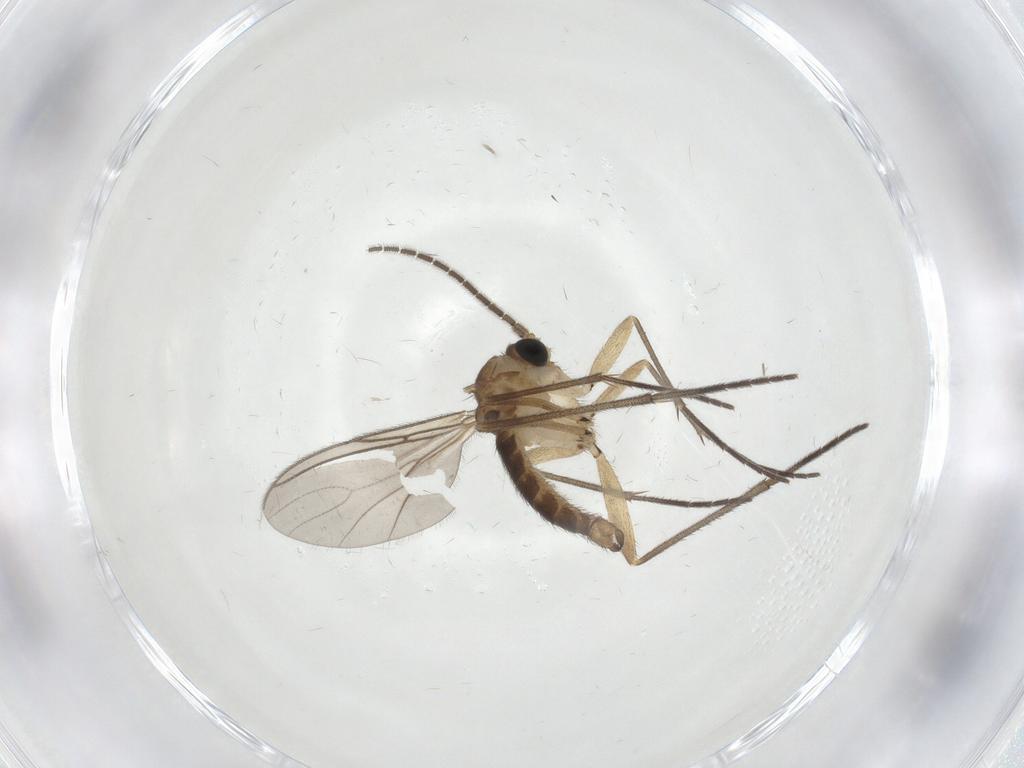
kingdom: Animalia
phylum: Arthropoda
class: Insecta
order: Diptera
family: Sciaridae
